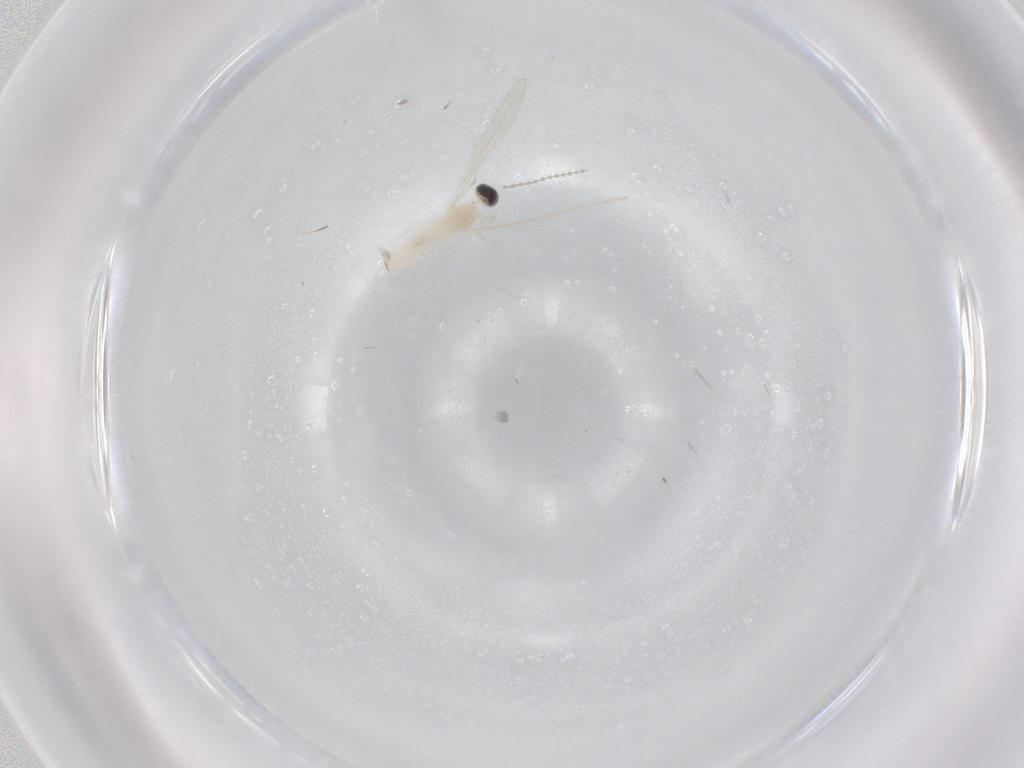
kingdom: Animalia
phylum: Arthropoda
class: Insecta
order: Diptera
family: Cecidomyiidae
